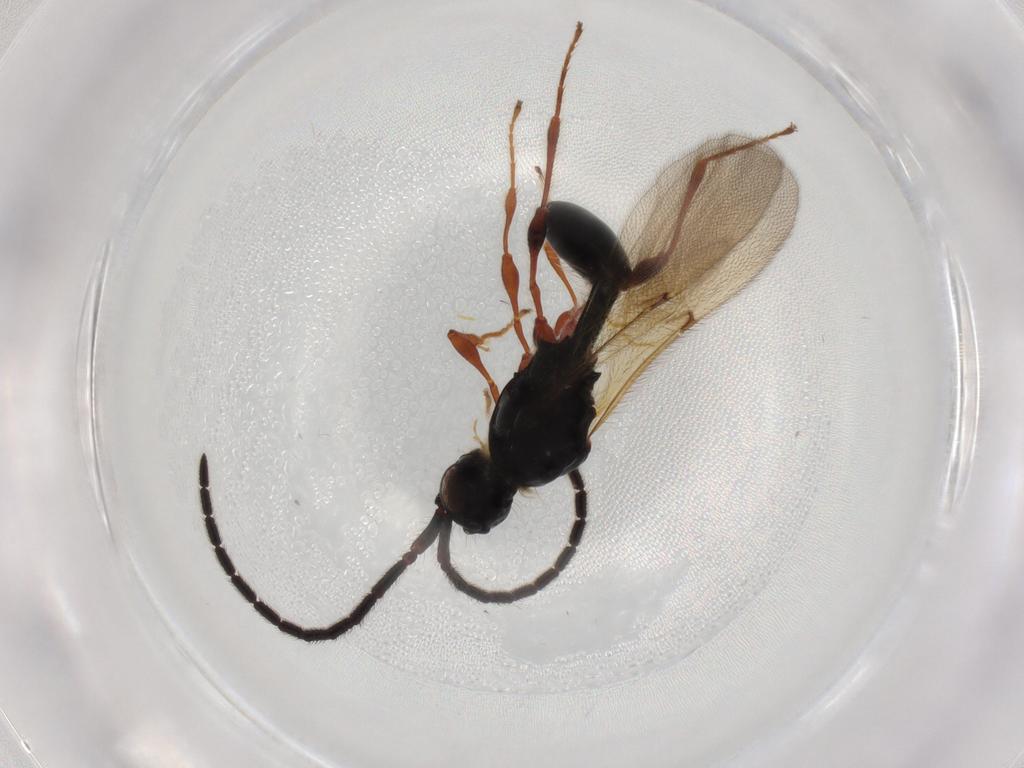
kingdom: Animalia
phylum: Arthropoda
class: Insecta
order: Hymenoptera
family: Diapriidae
